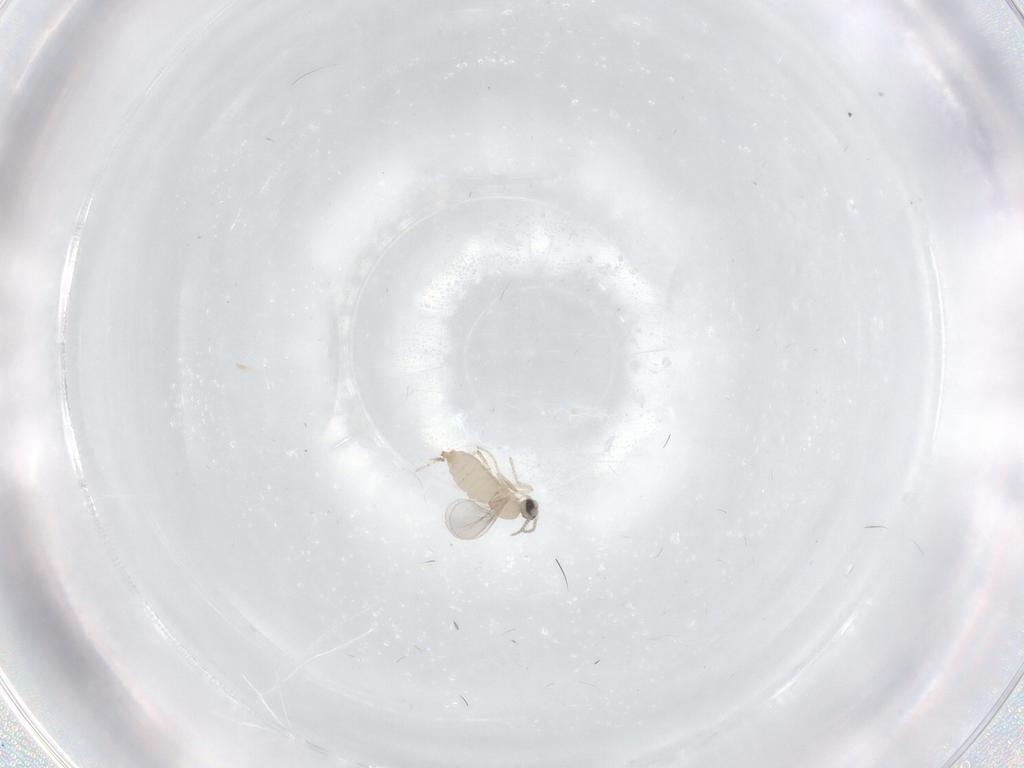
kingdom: Animalia
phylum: Arthropoda
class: Insecta
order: Diptera
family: Cecidomyiidae
